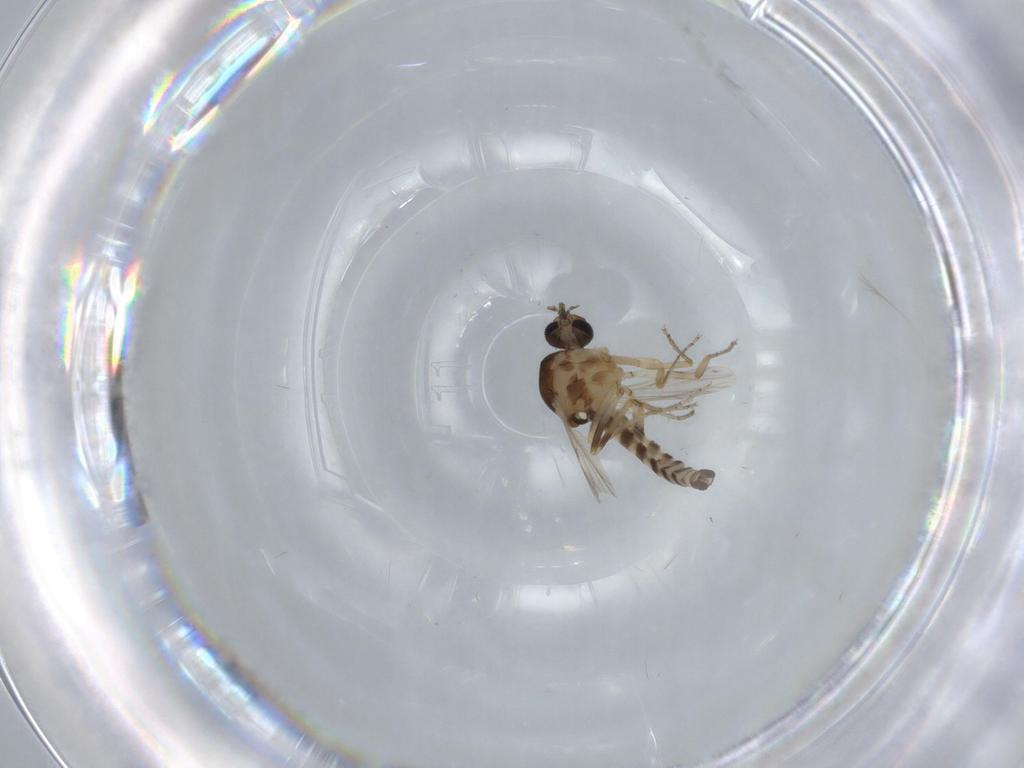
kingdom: Animalia
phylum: Arthropoda
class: Insecta
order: Diptera
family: Ceratopogonidae
